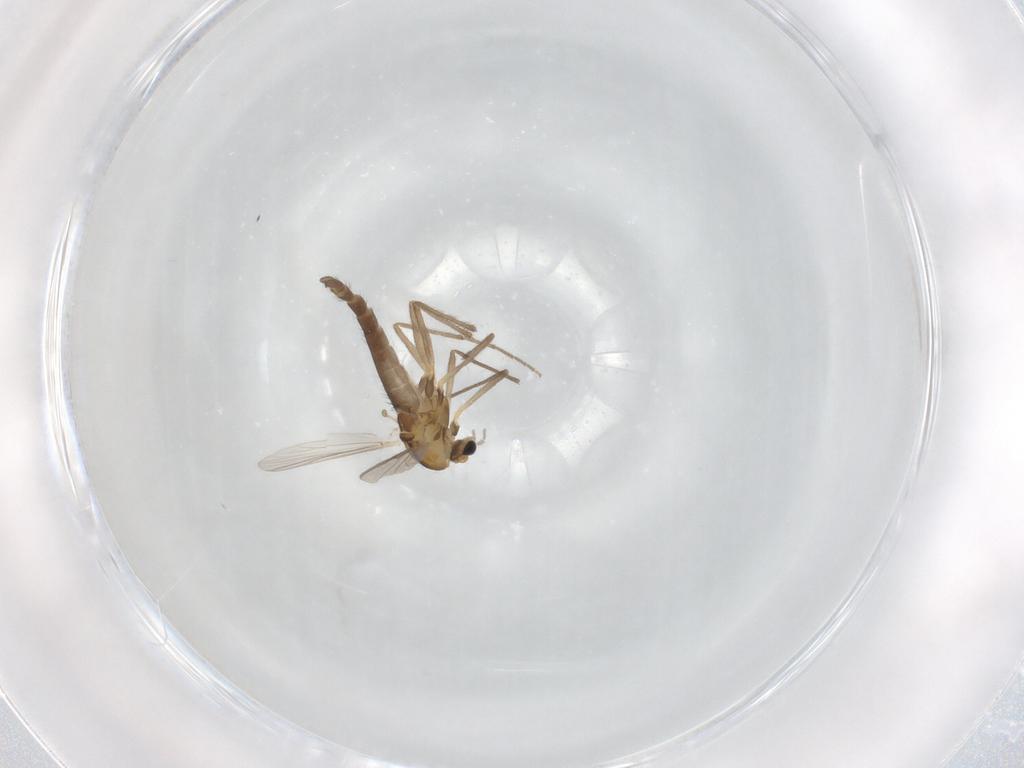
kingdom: Animalia
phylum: Arthropoda
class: Insecta
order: Diptera
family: Chironomidae
